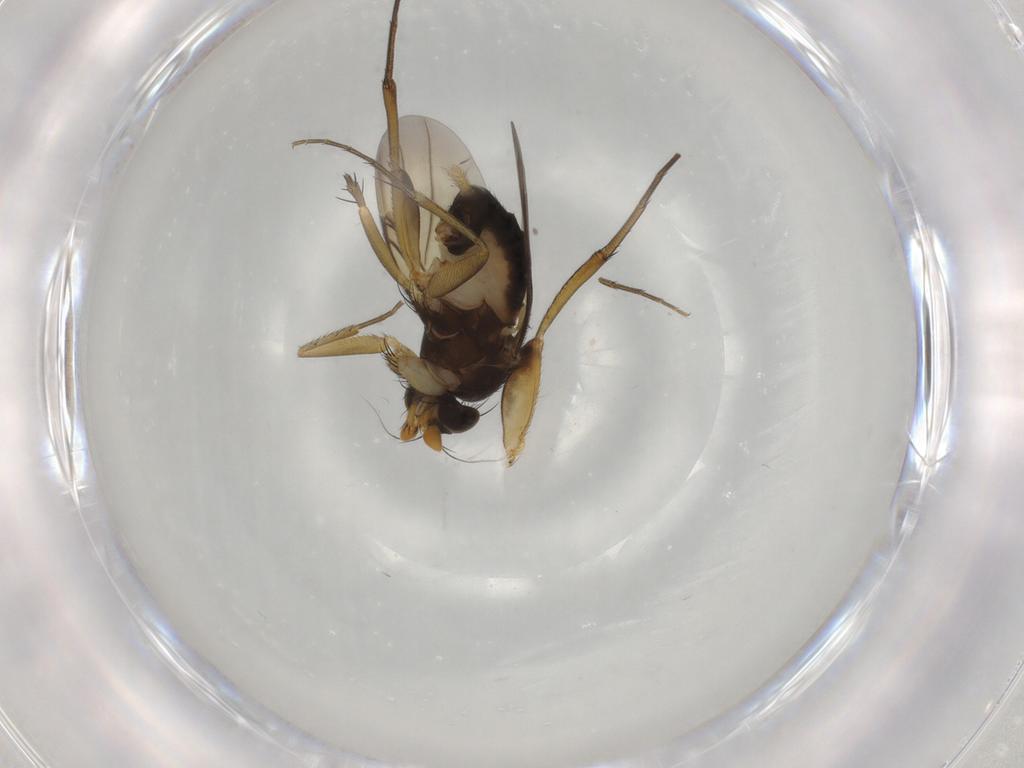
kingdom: Animalia
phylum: Arthropoda
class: Insecta
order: Diptera
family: Phoridae
